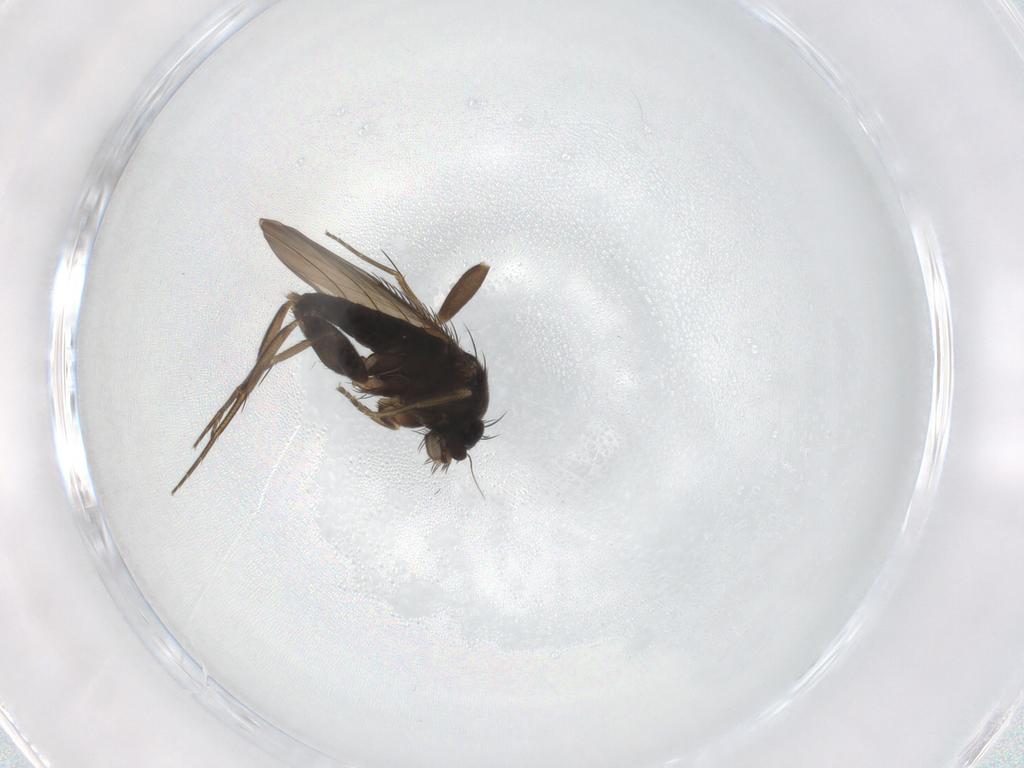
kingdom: Animalia
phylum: Arthropoda
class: Insecta
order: Diptera
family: Phoridae
